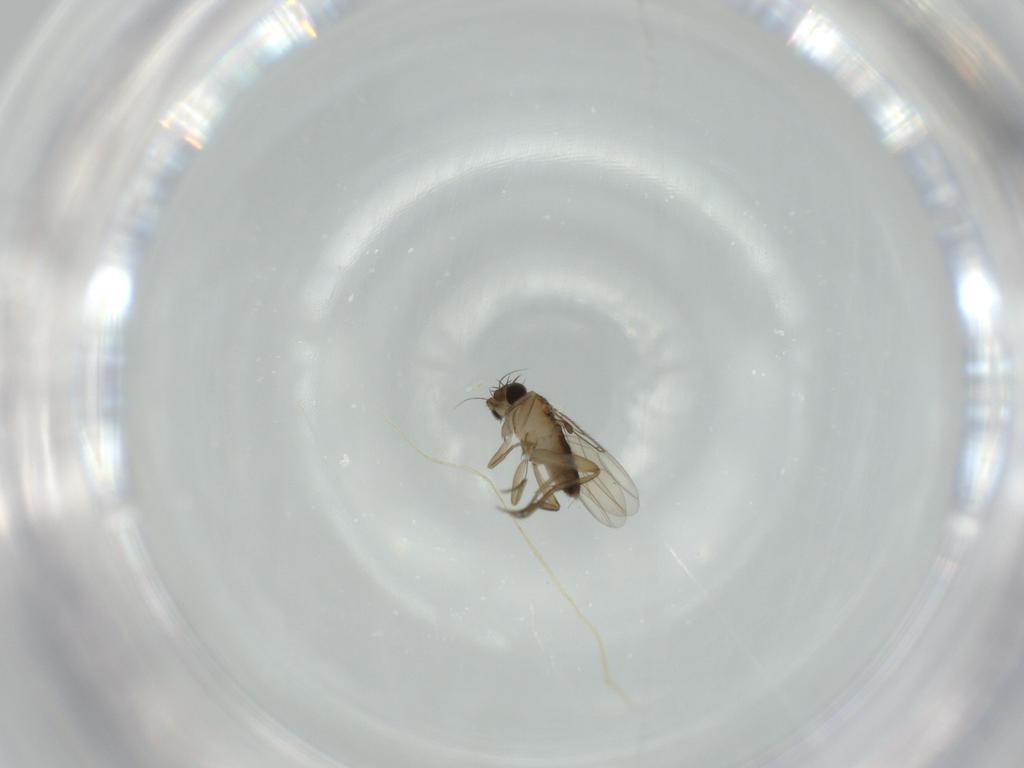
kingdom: Animalia
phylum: Arthropoda
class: Insecta
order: Diptera
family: Phoridae
